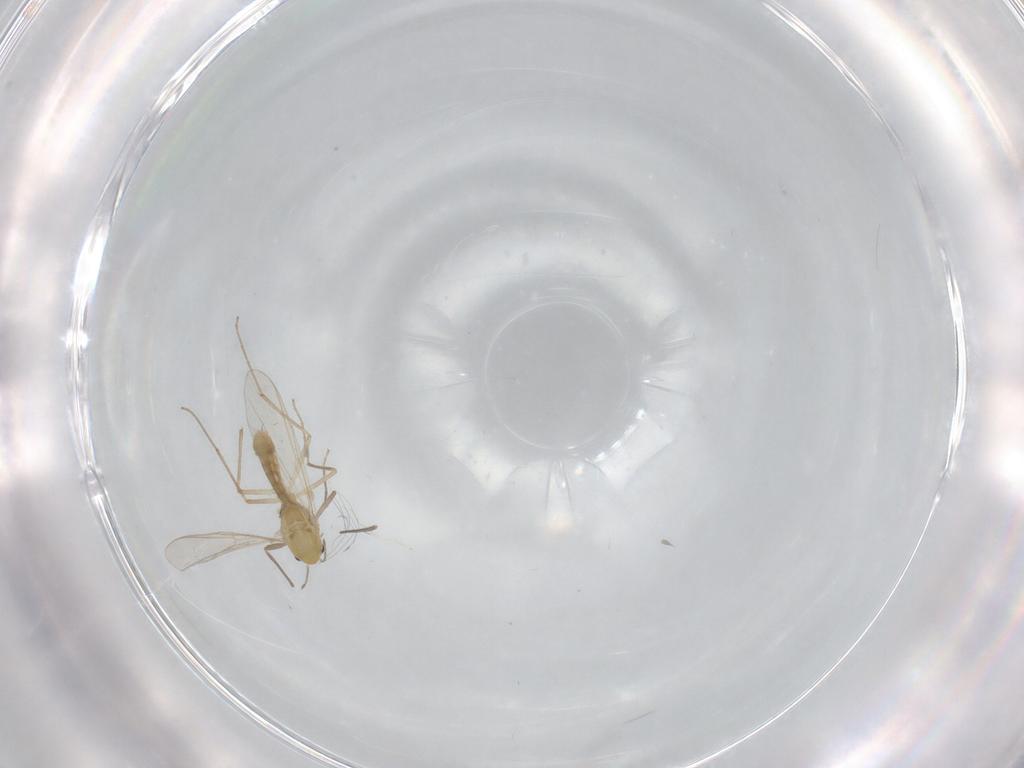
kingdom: Animalia
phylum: Arthropoda
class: Insecta
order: Diptera
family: Chironomidae
